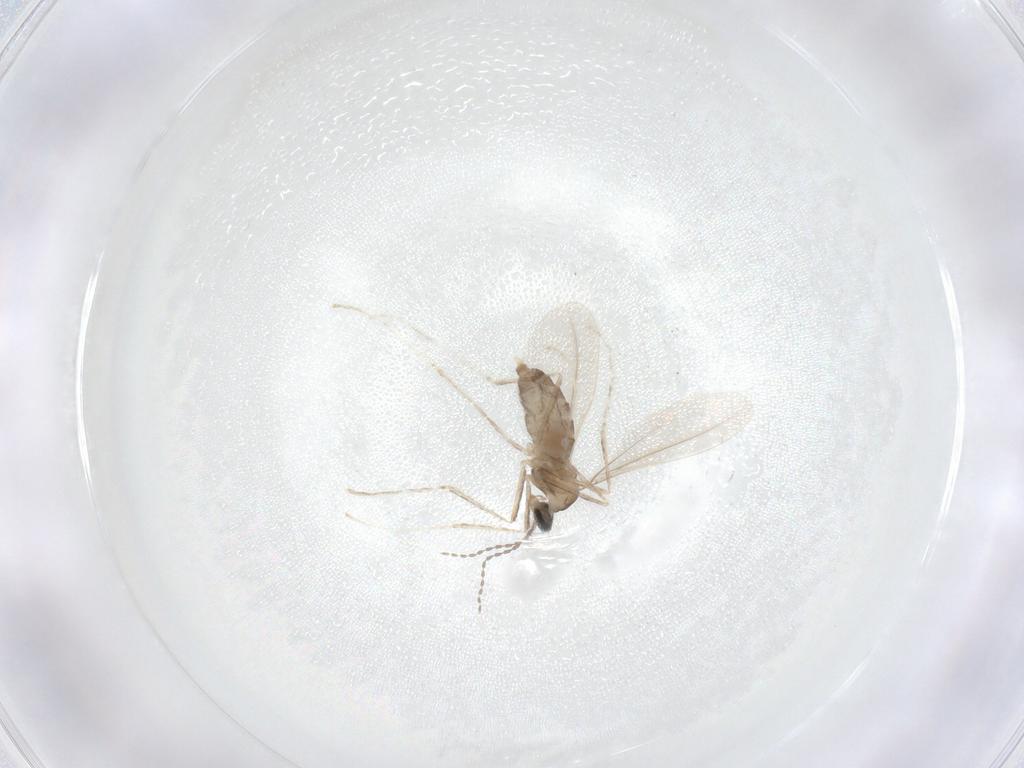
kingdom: Animalia
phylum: Arthropoda
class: Insecta
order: Diptera
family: Cecidomyiidae
